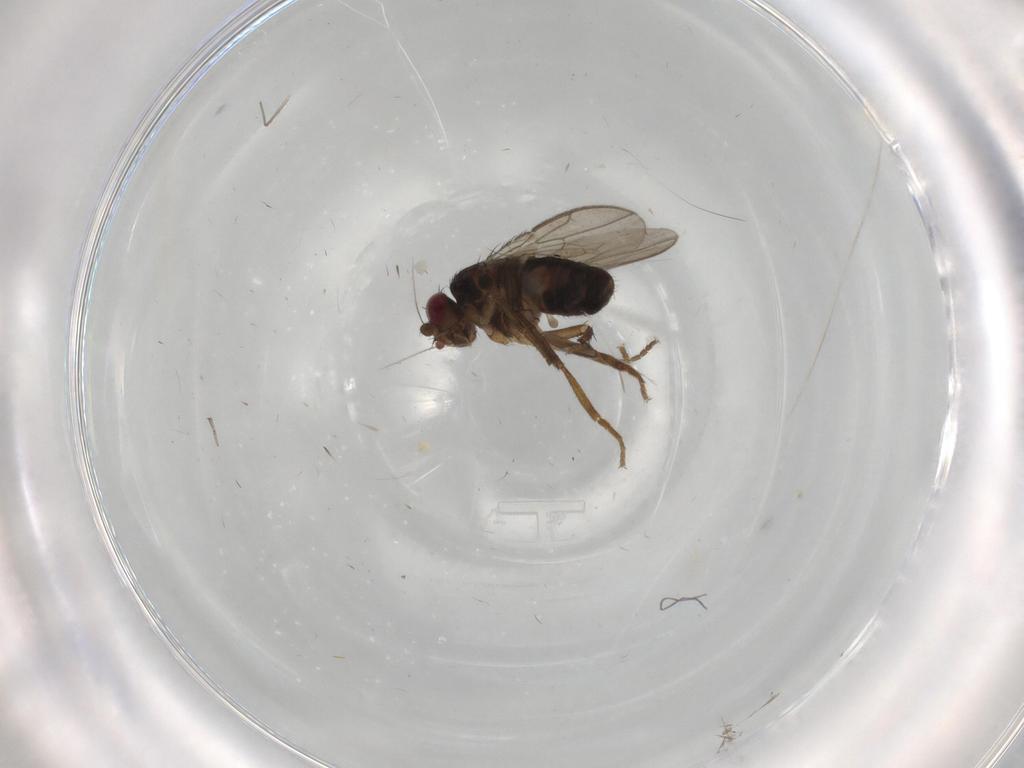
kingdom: Animalia
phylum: Arthropoda
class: Insecta
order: Diptera
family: Sphaeroceridae
